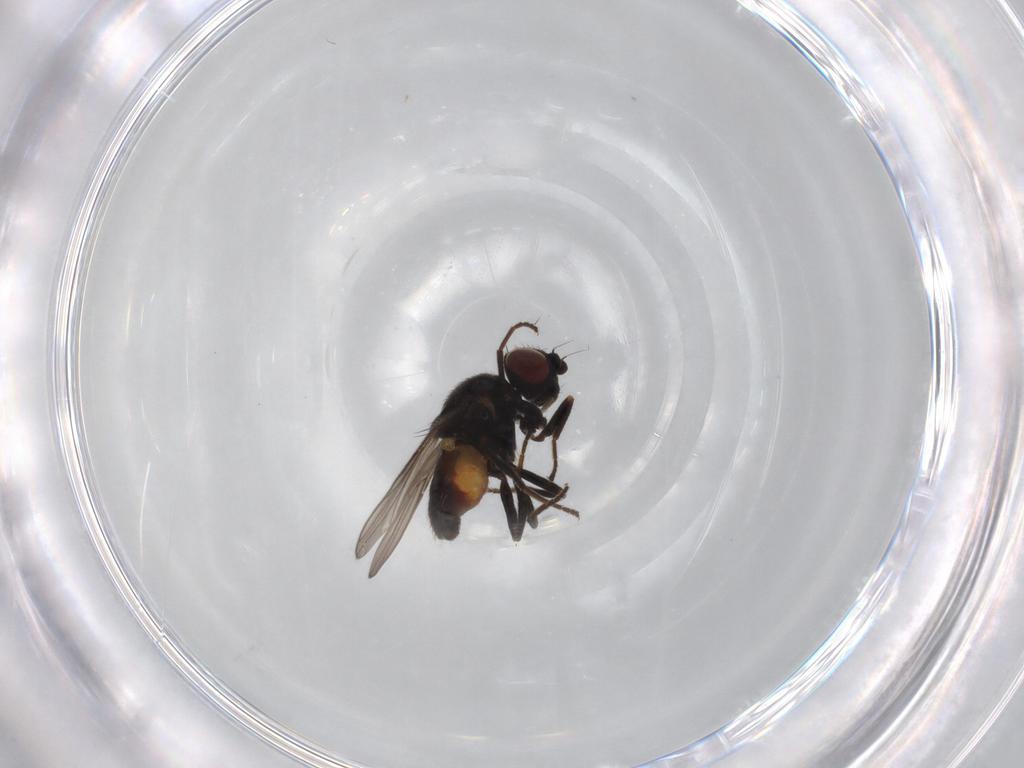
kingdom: Animalia
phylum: Arthropoda
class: Insecta
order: Diptera
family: Chloropidae
